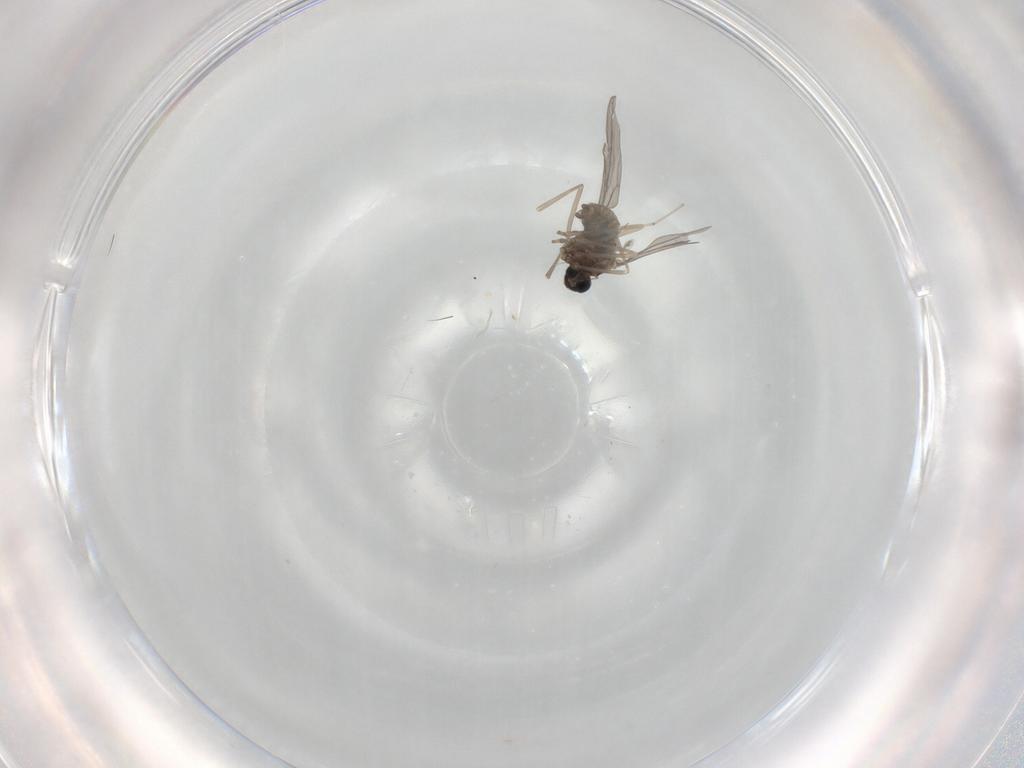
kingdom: Animalia
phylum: Arthropoda
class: Insecta
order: Diptera
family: Cecidomyiidae
